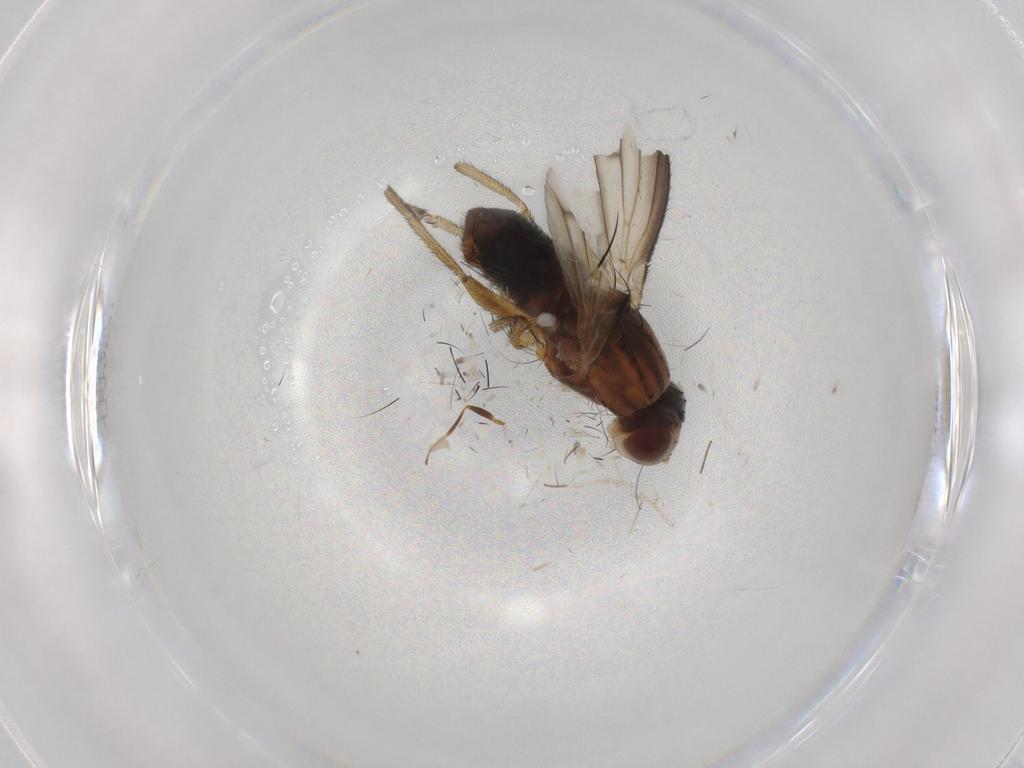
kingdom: Animalia
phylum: Arthropoda
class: Insecta
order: Diptera
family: Heleomyzidae
